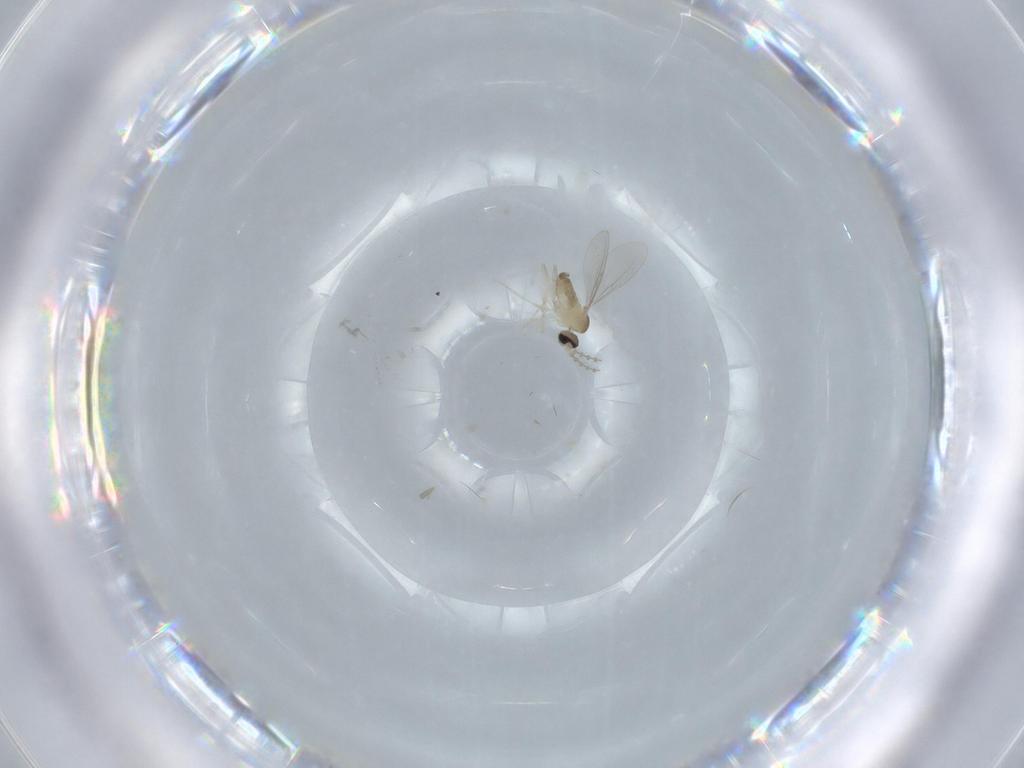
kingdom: Animalia
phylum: Arthropoda
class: Insecta
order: Diptera
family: Cecidomyiidae
